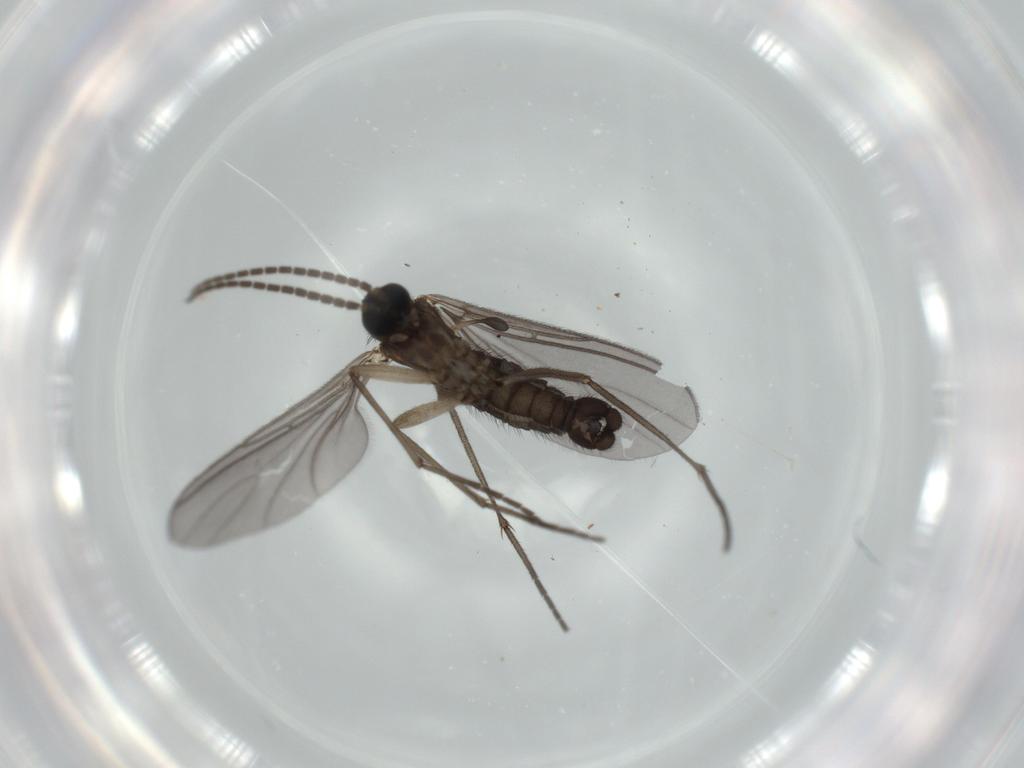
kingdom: Animalia
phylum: Arthropoda
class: Insecta
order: Diptera
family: Sciaridae
